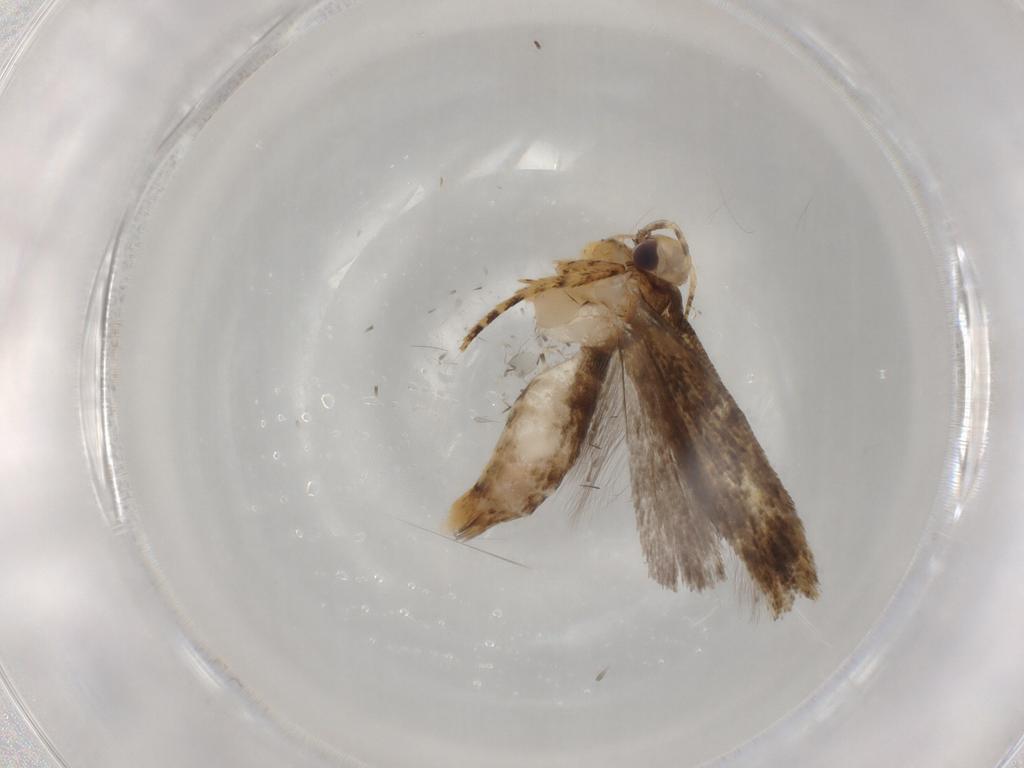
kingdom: Animalia
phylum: Arthropoda
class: Insecta
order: Lepidoptera
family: Gelechiidae
